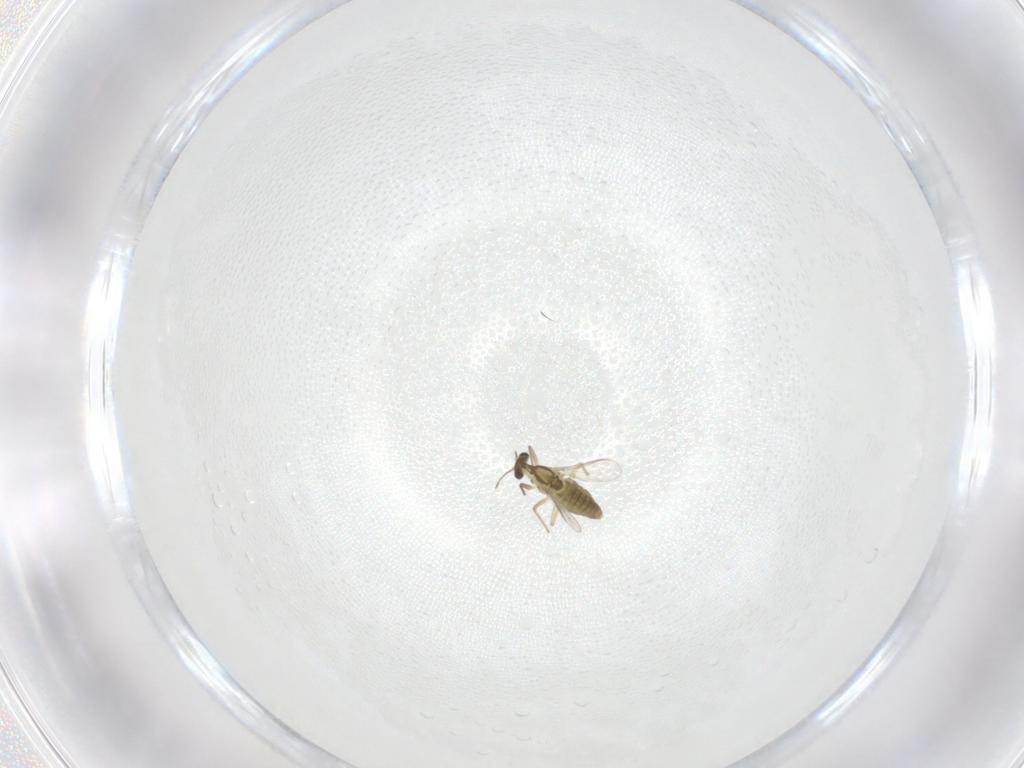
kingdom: Animalia
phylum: Arthropoda
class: Insecta
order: Diptera
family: Chironomidae
